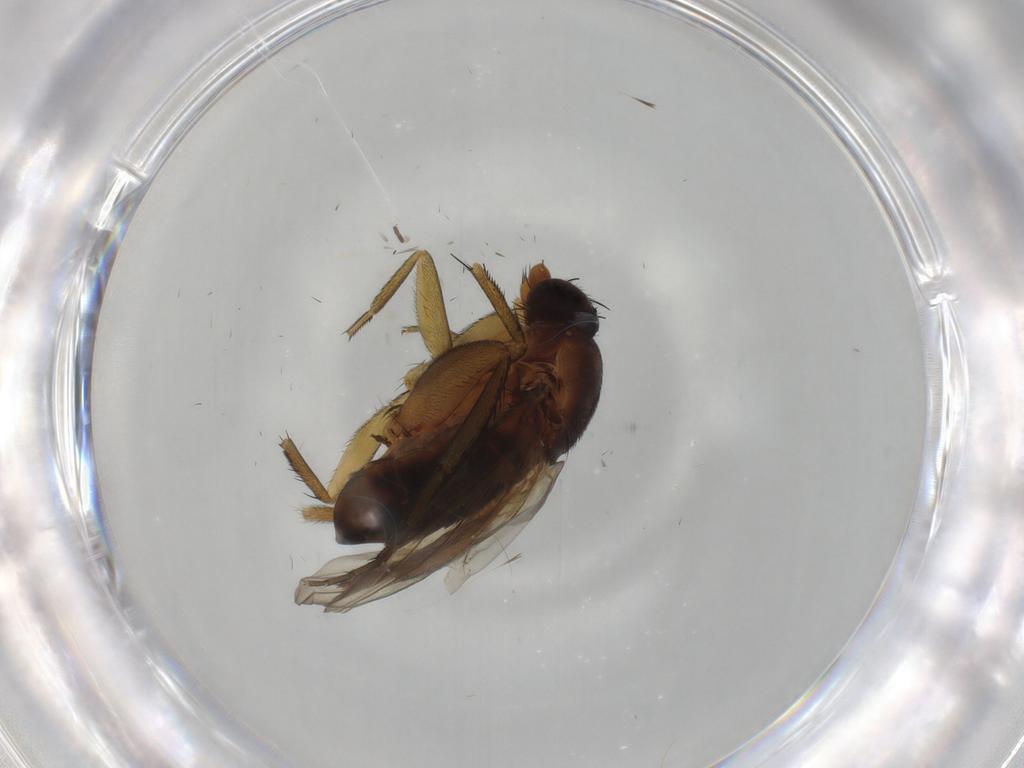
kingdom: Animalia
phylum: Arthropoda
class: Insecta
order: Diptera
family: Phoridae
